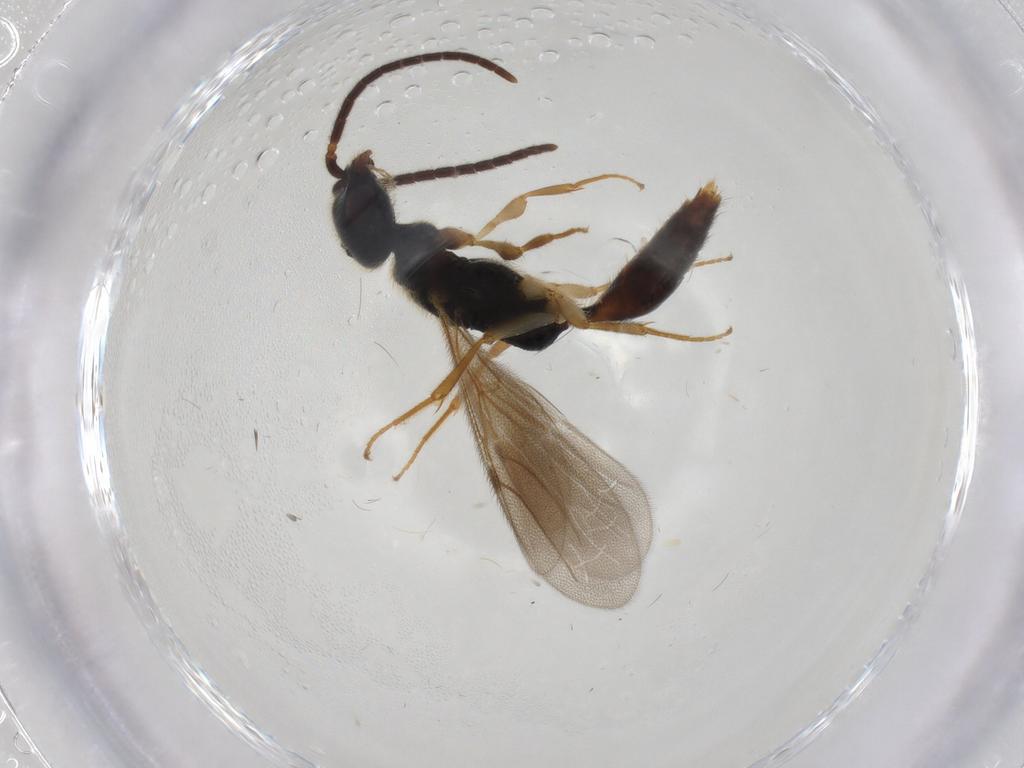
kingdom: Animalia
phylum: Arthropoda
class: Insecta
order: Hymenoptera
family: Bethylidae
